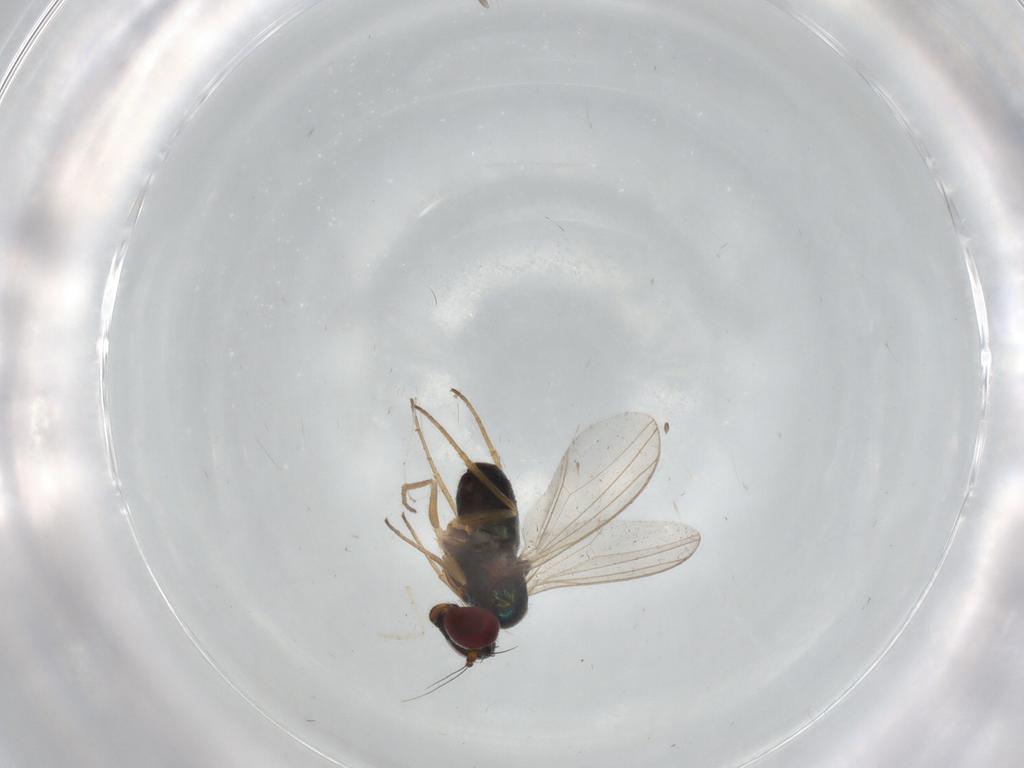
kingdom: Animalia
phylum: Arthropoda
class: Insecta
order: Diptera
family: Dolichopodidae
